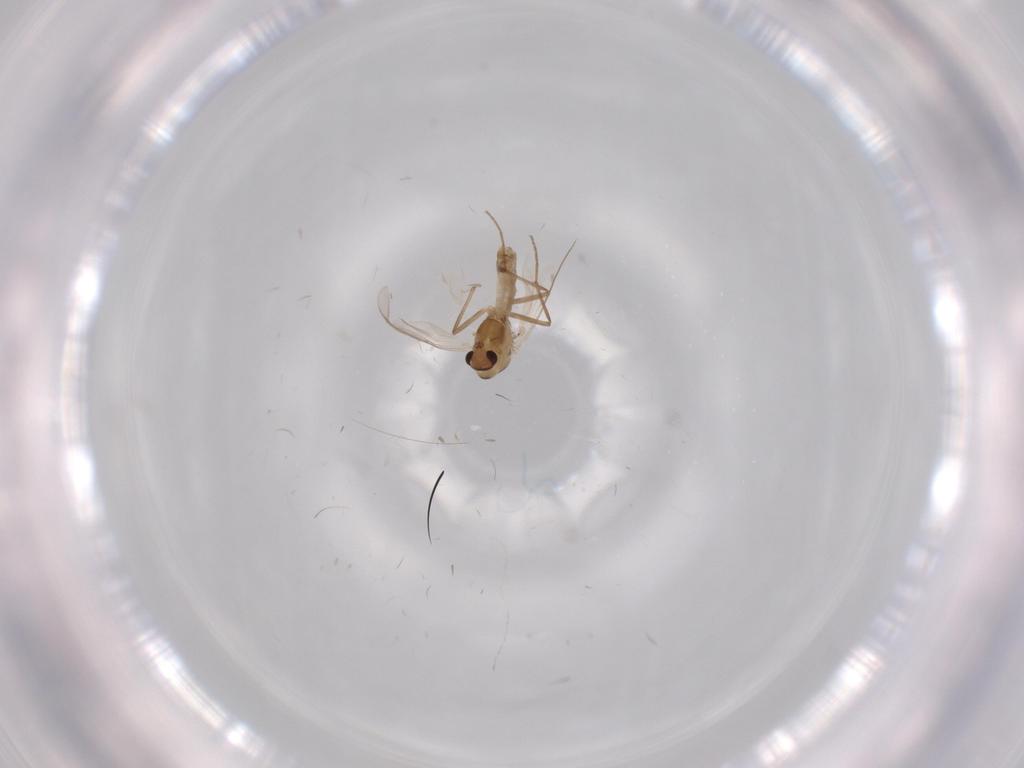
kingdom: Animalia
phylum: Arthropoda
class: Insecta
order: Diptera
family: Chironomidae
